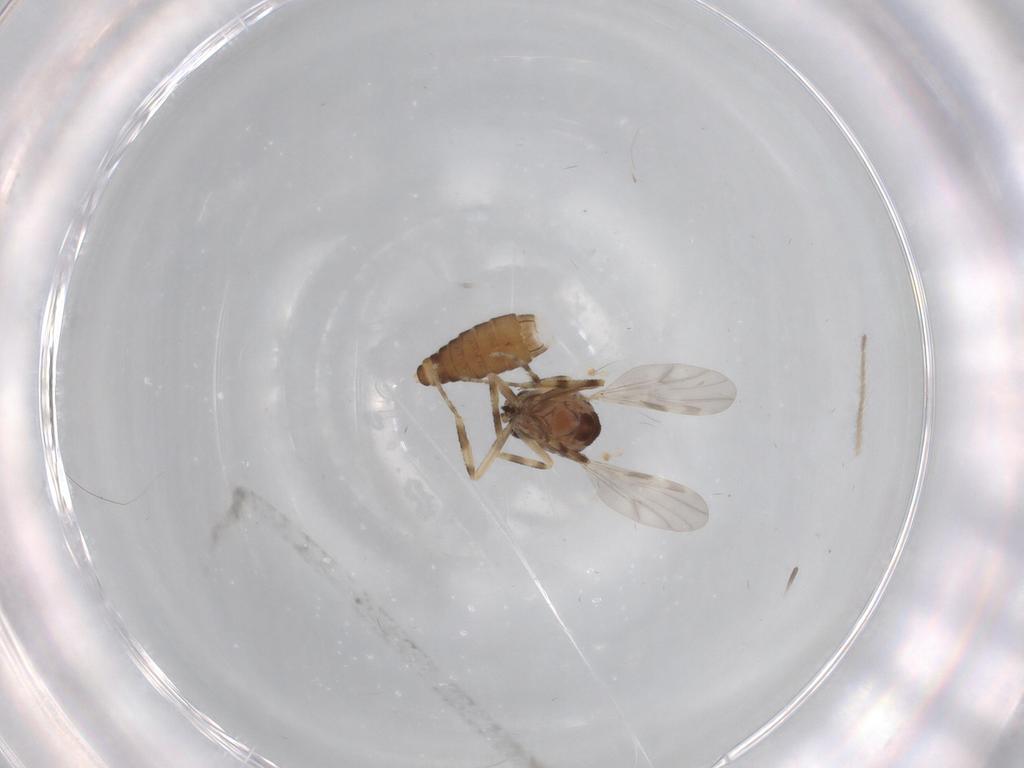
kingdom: Animalia
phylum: Arthropoda
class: Insecta
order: Diptera
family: Ceratopogonidae
